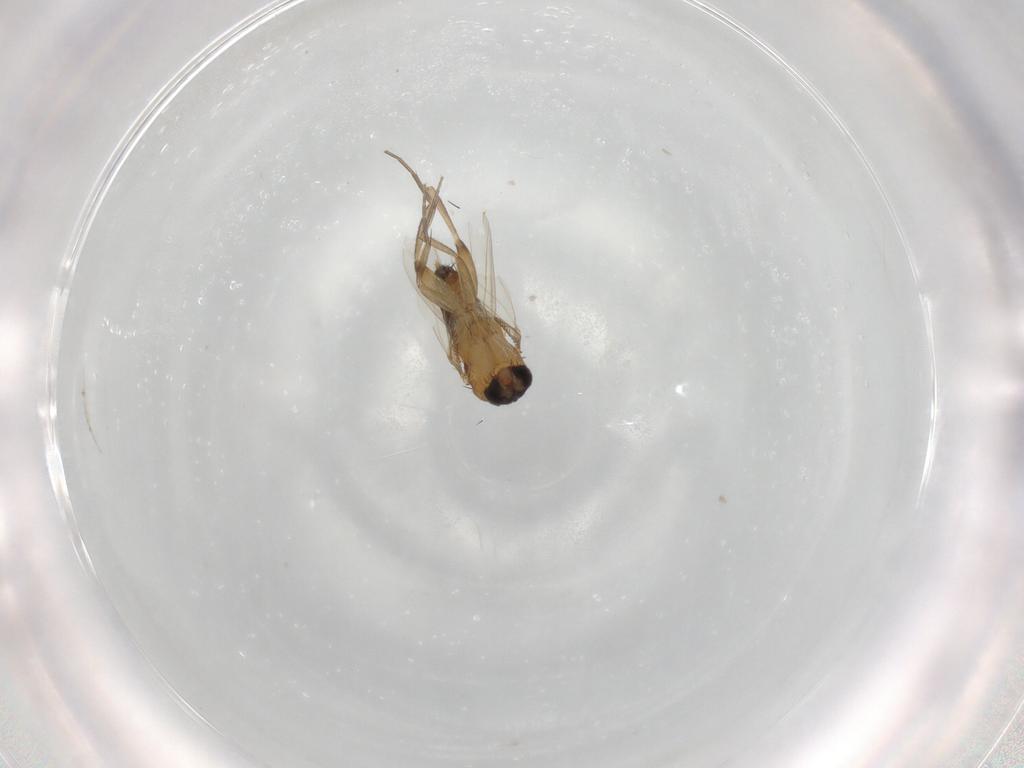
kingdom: Animalia
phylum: Arthropoda
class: Insecta
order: Diptera
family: Phoridae
